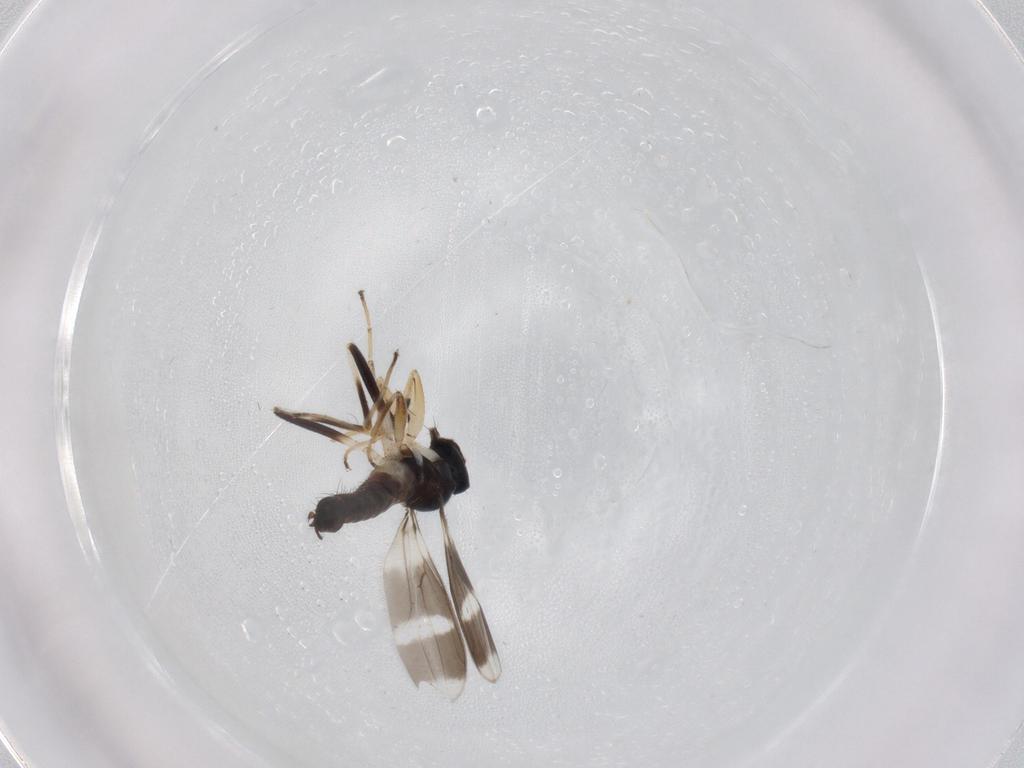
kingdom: Animalia
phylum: Arthropoda
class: Insecta
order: Diptera
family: Hybotidae
